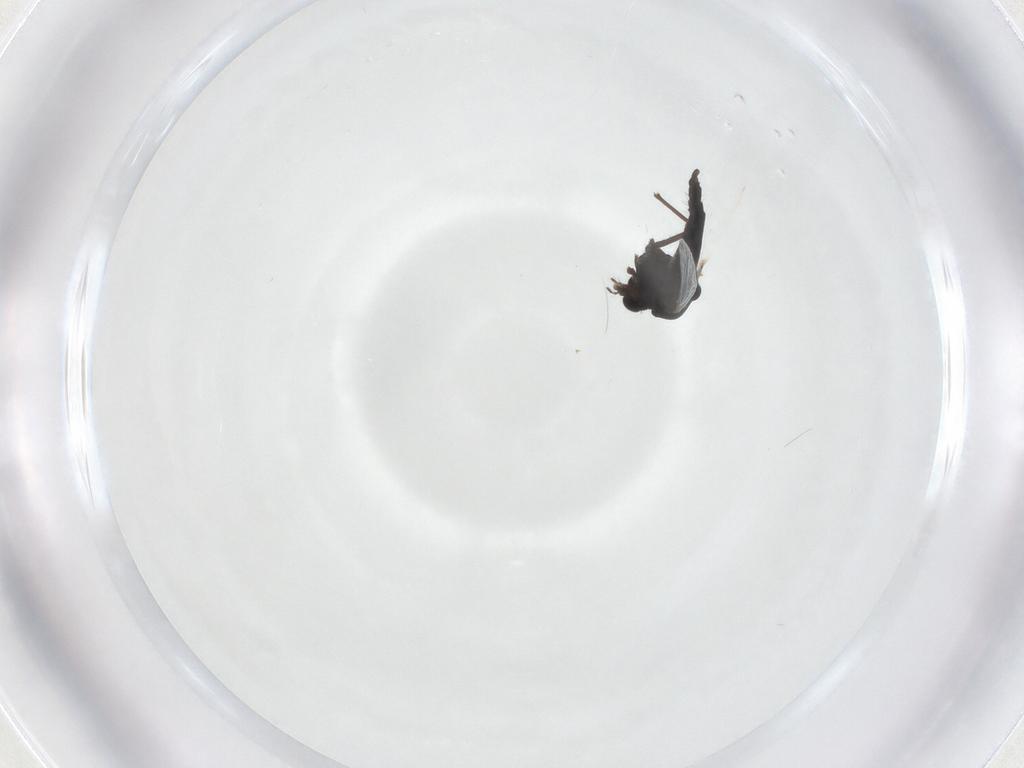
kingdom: Animalia
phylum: Arthropoda
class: Insecta
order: Diptera
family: Chironomidae
